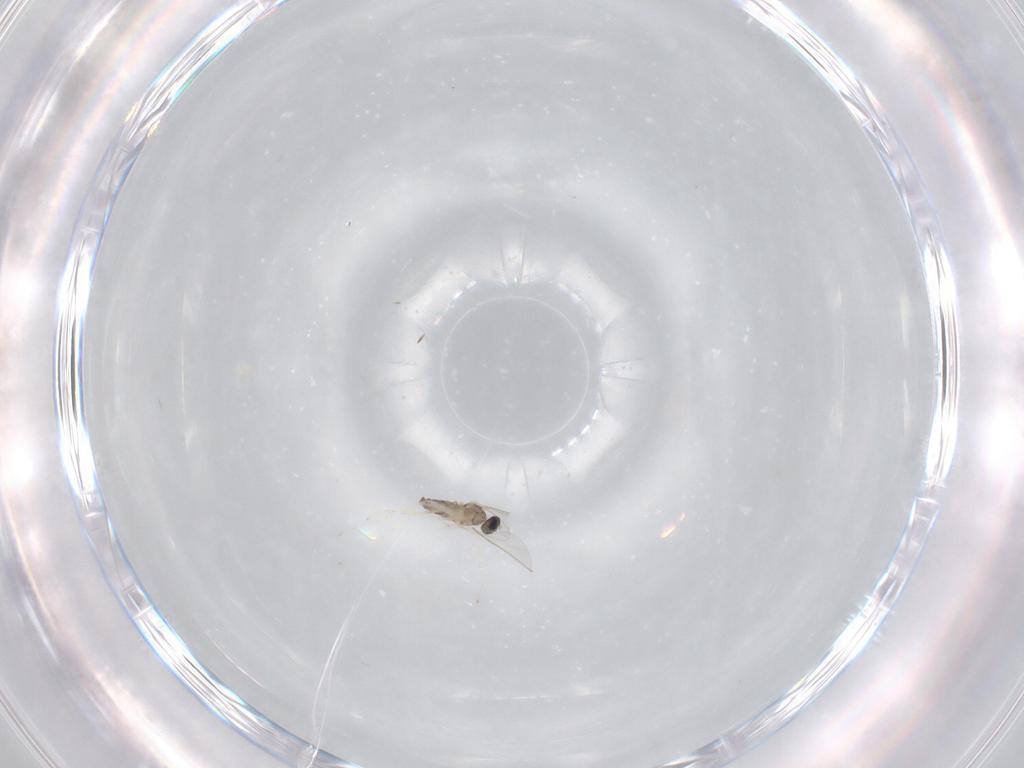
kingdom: Animalia
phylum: Arthropoda
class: Insecta
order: Diptera
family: Cecidomyiidae
